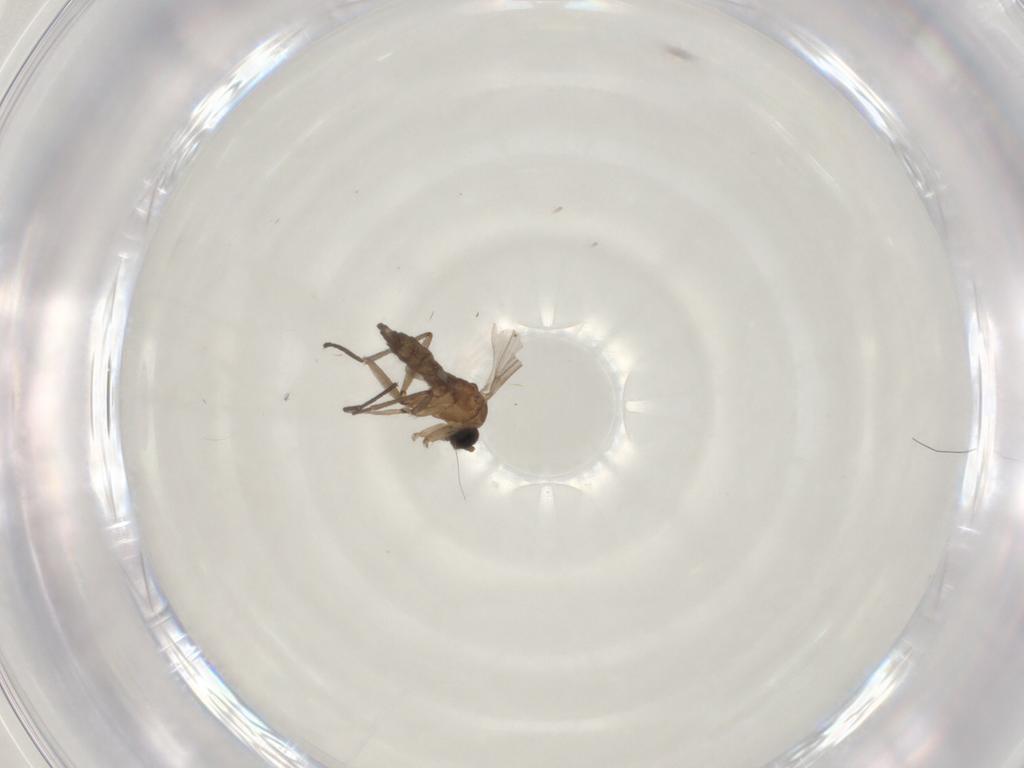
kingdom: Animalia
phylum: Arthropoda
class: Insecta
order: Diptera
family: Sciaridae
